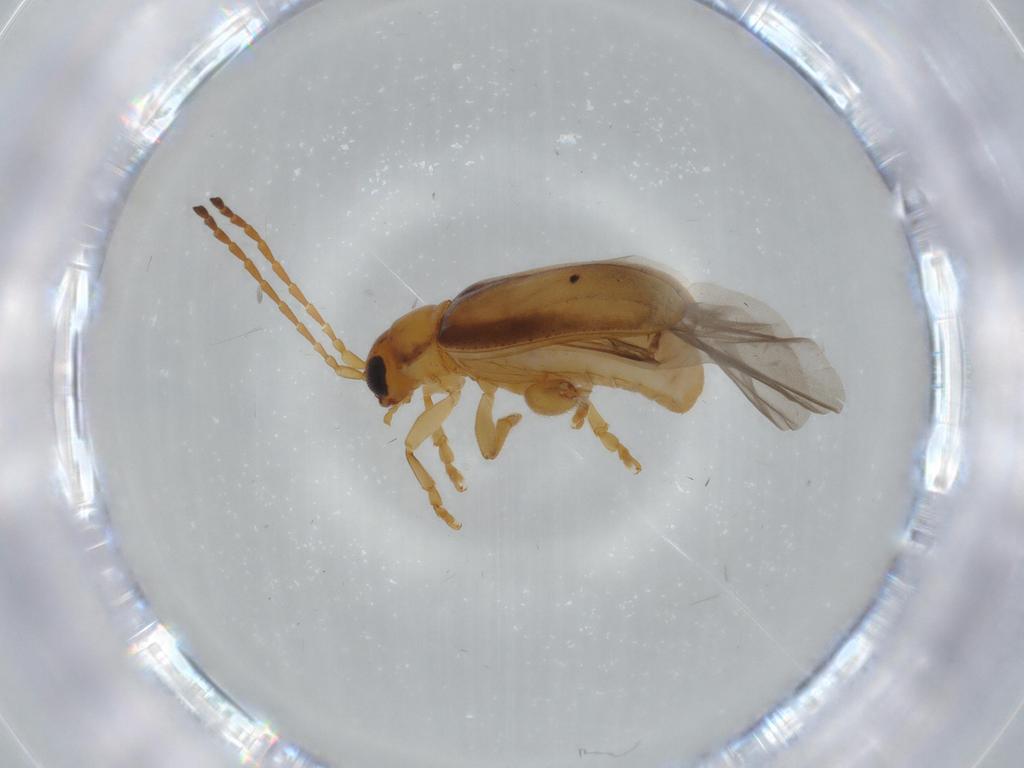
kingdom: Animalia
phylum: Arthropoda
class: Insecta
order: Coleoptera
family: Chrysomelidae
